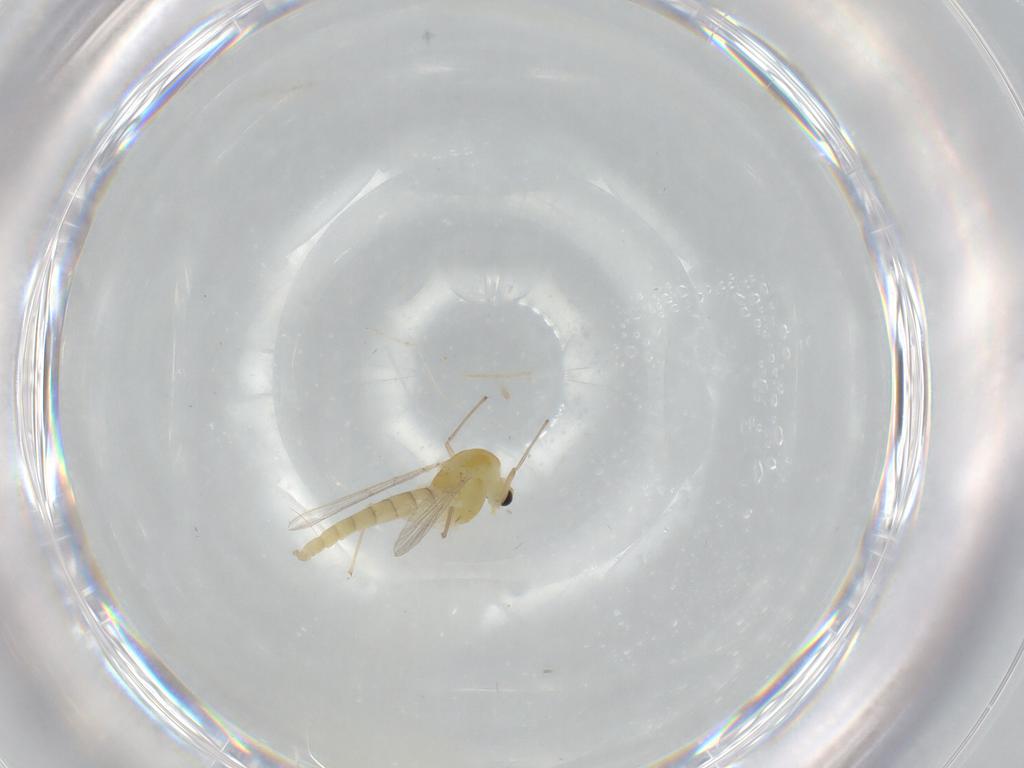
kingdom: Animalia
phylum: Arthropoda
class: Insecta
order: Diptera
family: Chironomidae
